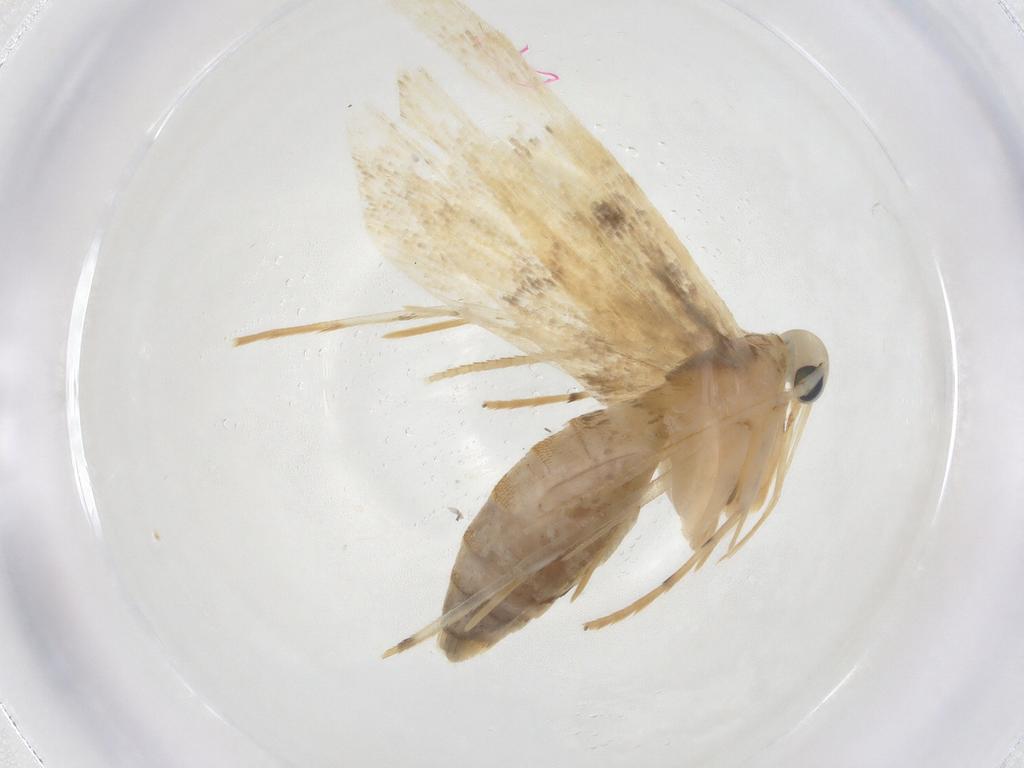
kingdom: Animalia
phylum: Arthropoda
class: Insecta
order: Lepidoptera
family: Lecithoceridae
